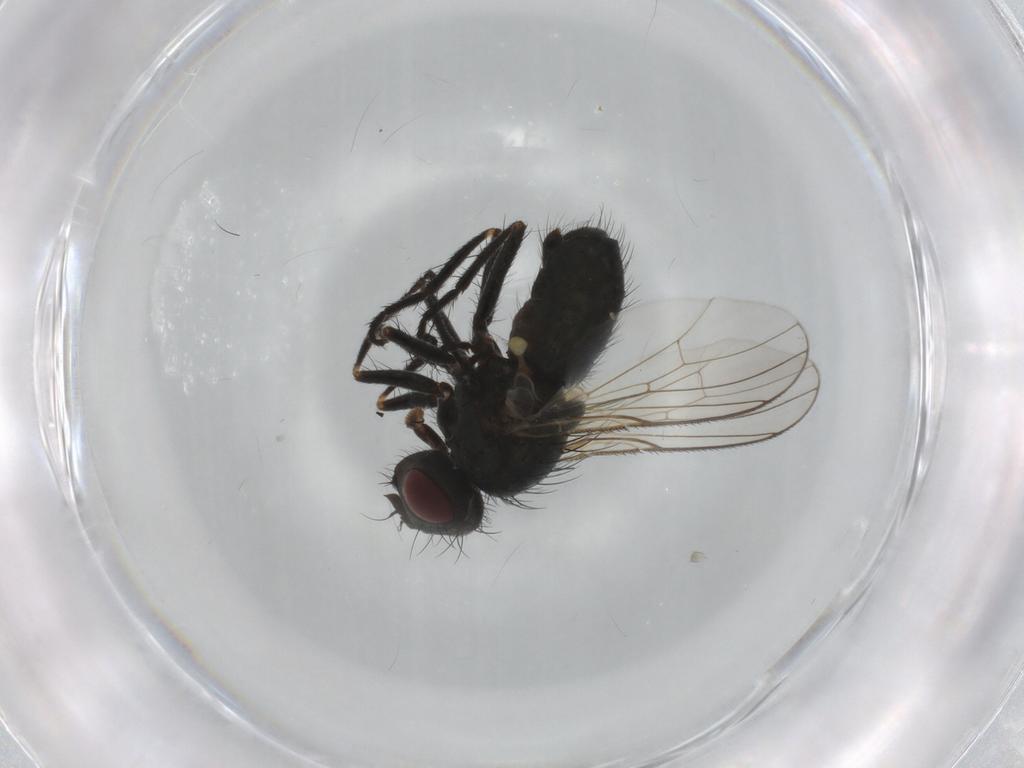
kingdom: Animalia
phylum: Arthropoda
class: Insecta
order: Diptera
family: Muscidae
